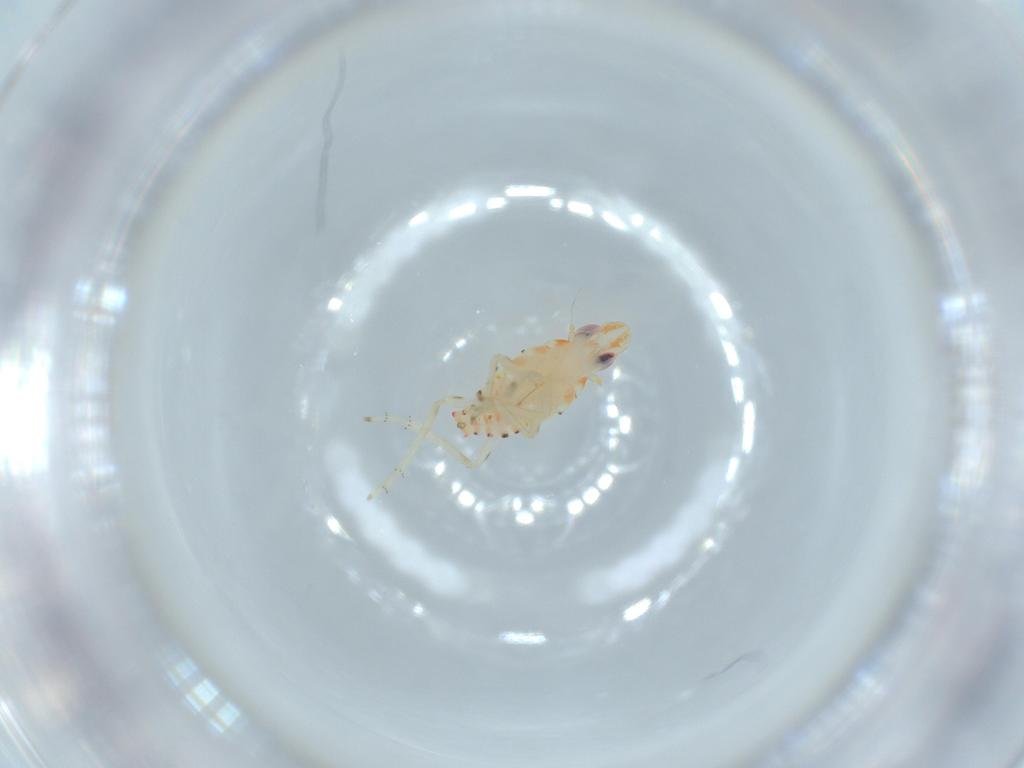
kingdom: Animalia
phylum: Arthropoda
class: Insecta
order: Hemiptera
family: Tropiduchidae
